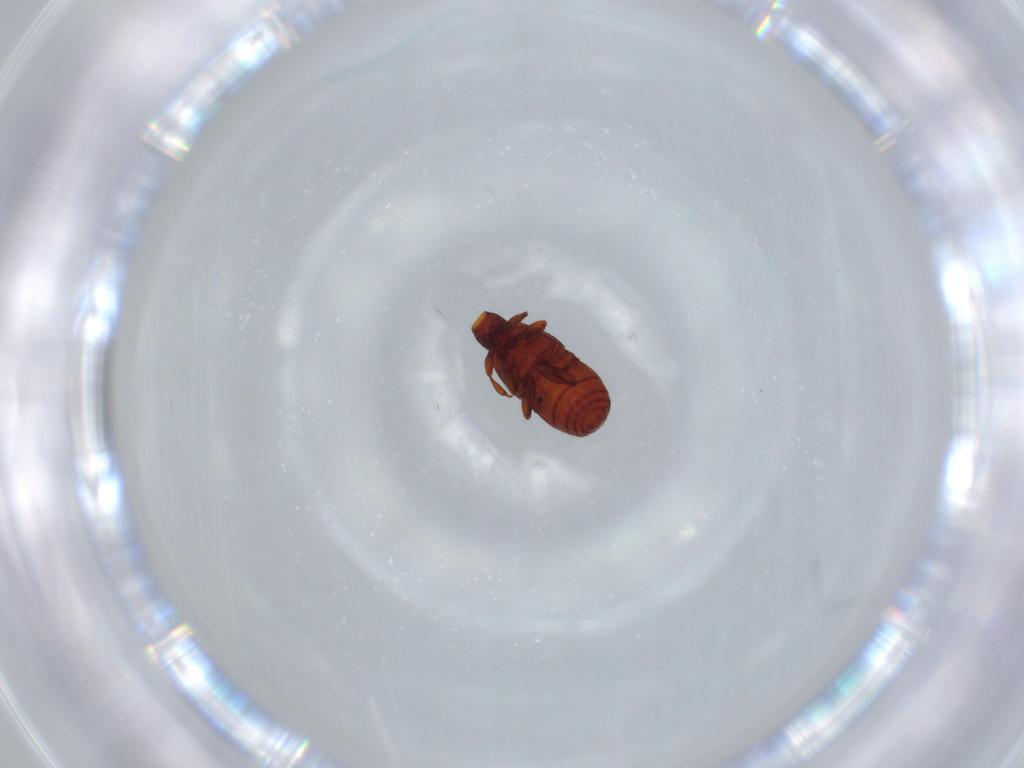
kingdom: Animalia
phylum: Arthropoda
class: Insecta
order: Coleoptera
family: Staphylinidae
